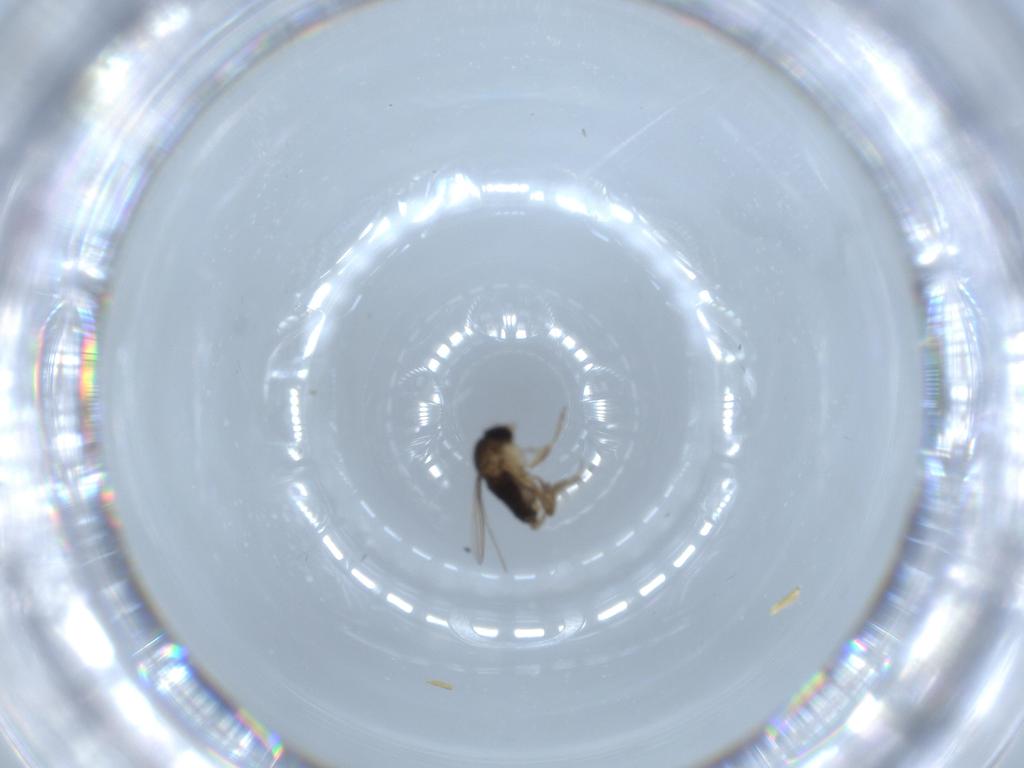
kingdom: Animalia
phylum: Arthropoda
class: Insecta
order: Diptera
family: Phoridae
